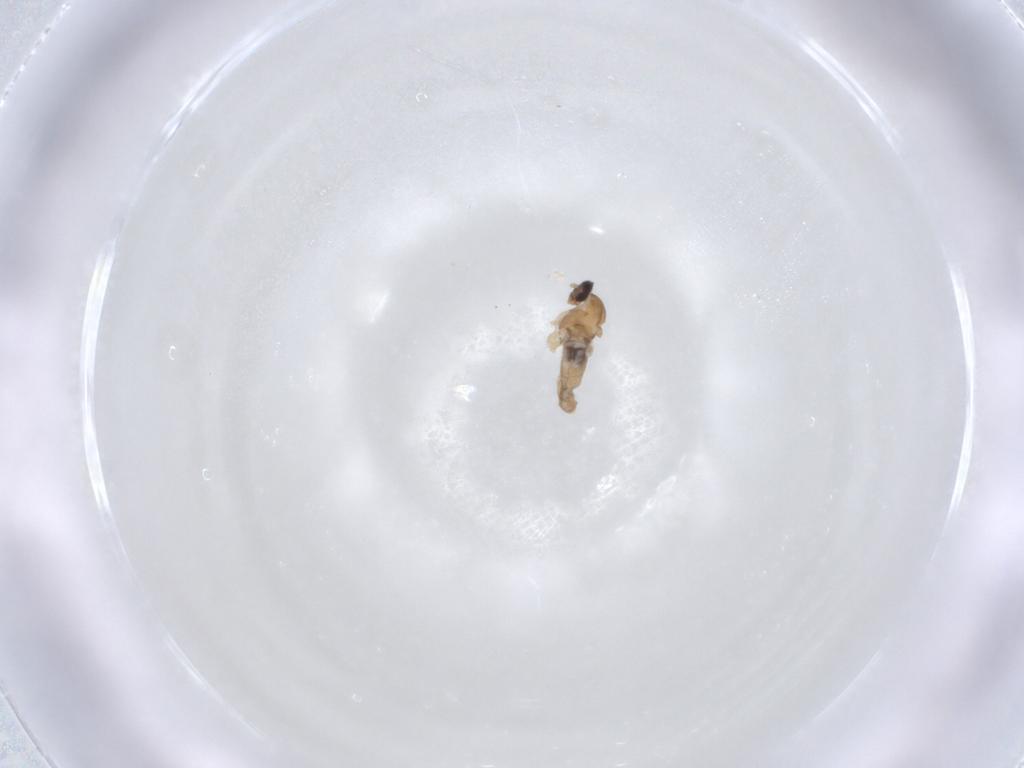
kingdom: Animalia
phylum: Arthropoda
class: Insecta
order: Diptera
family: Cecidomyiidae
